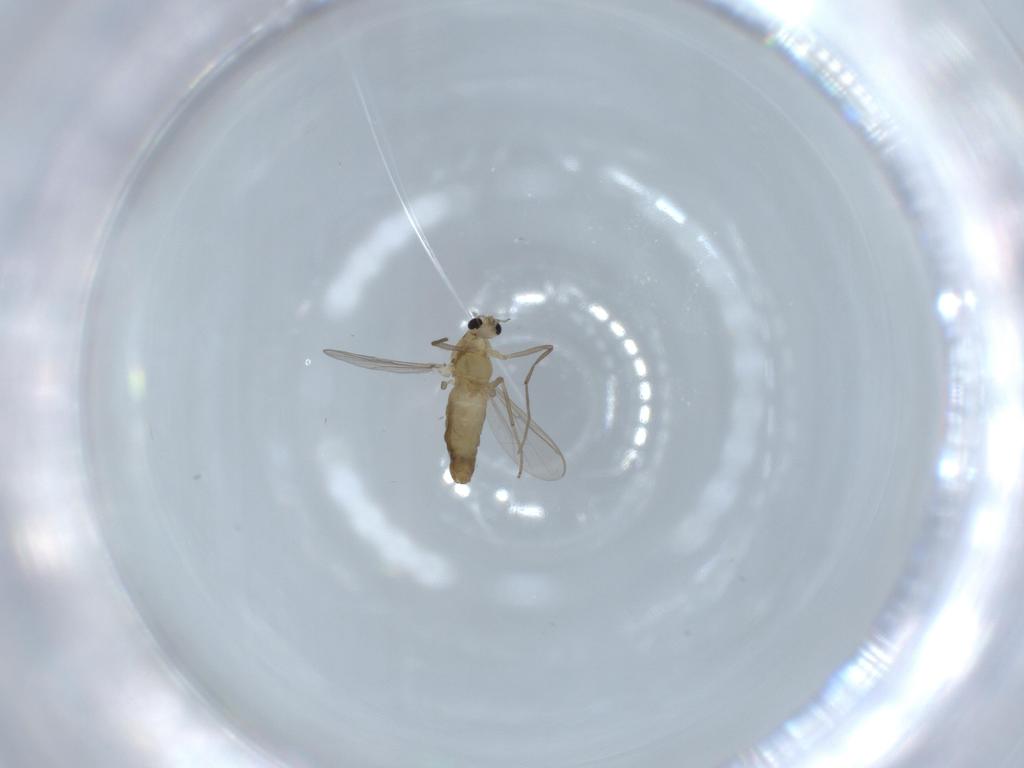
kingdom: Animalia
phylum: Arthropoda
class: Insecta
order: Diptera
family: Chironomidae
